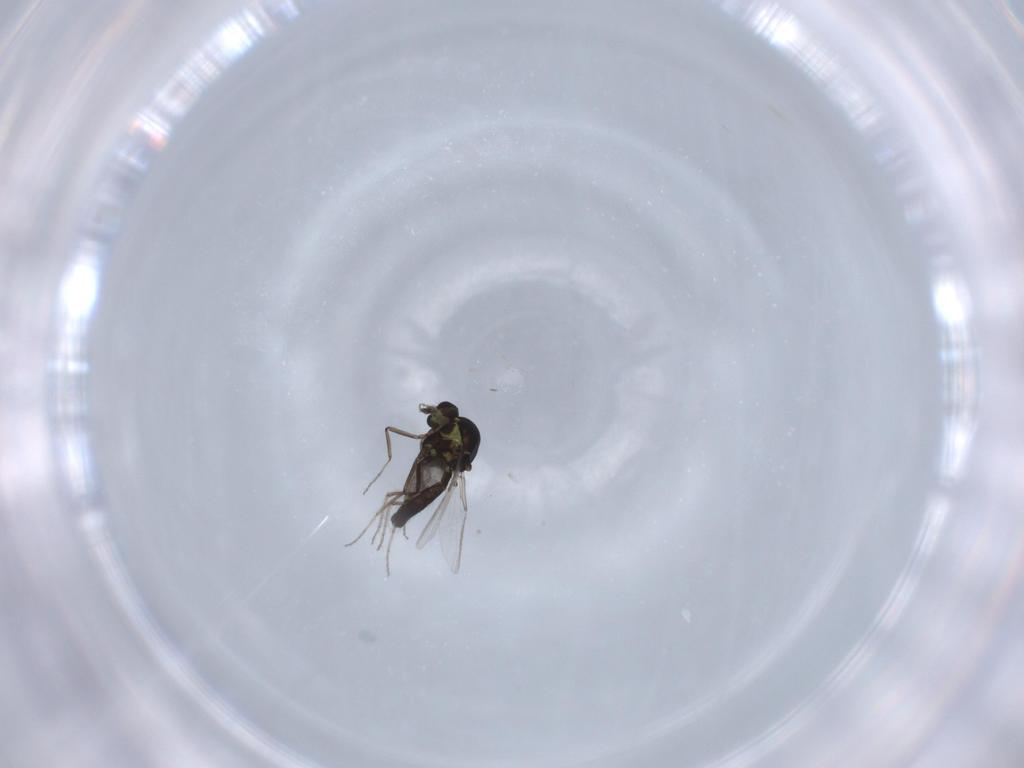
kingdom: Animalia
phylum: Arthropoda
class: Insecta
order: Diptera
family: Ceratopogonidae
